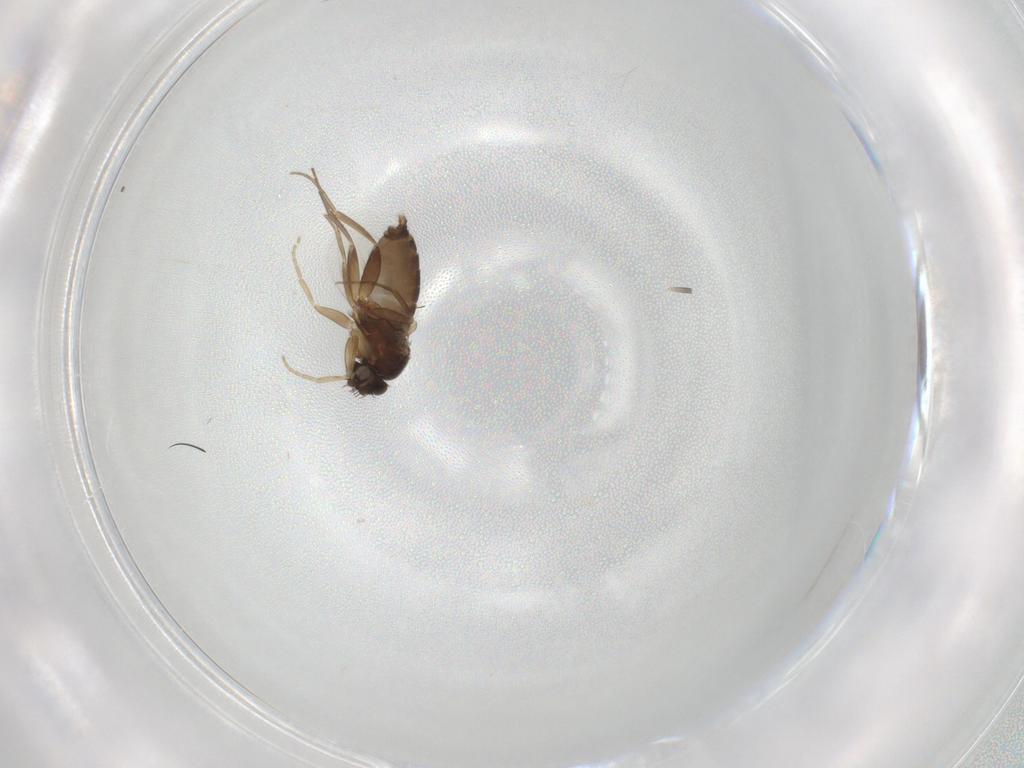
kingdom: Animalia
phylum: Arthropoda
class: Insecta
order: Diptera
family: Phoridae
